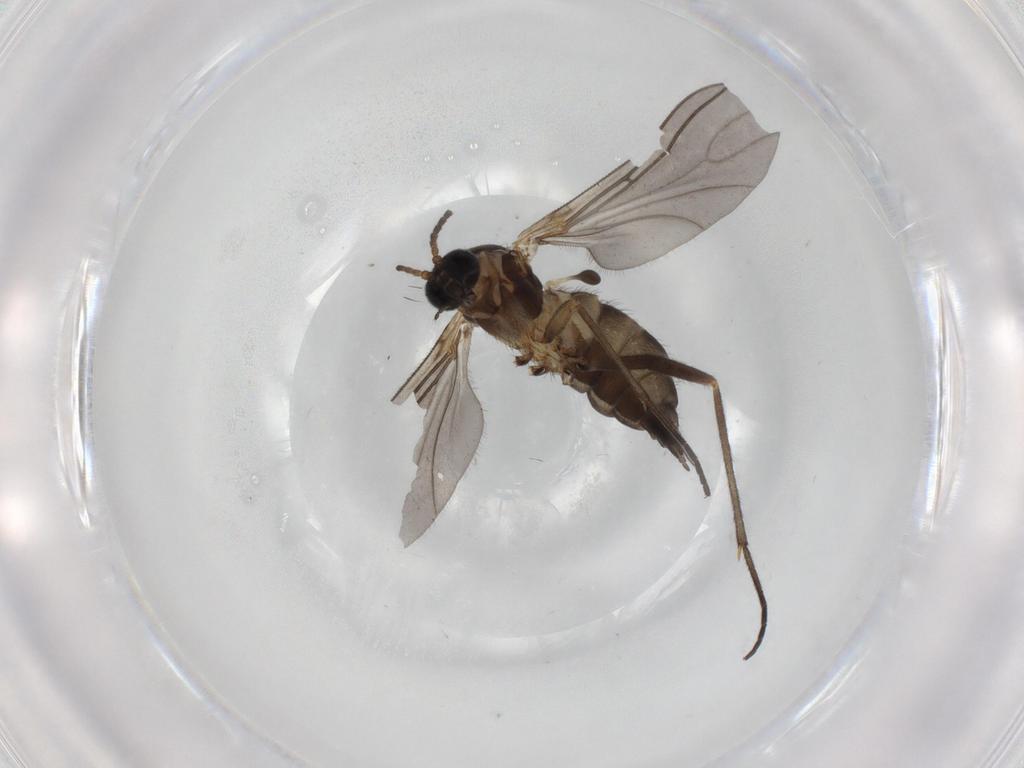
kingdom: Animalia
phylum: Arthropoda
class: Insecta
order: Diptera
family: Sciaridae
